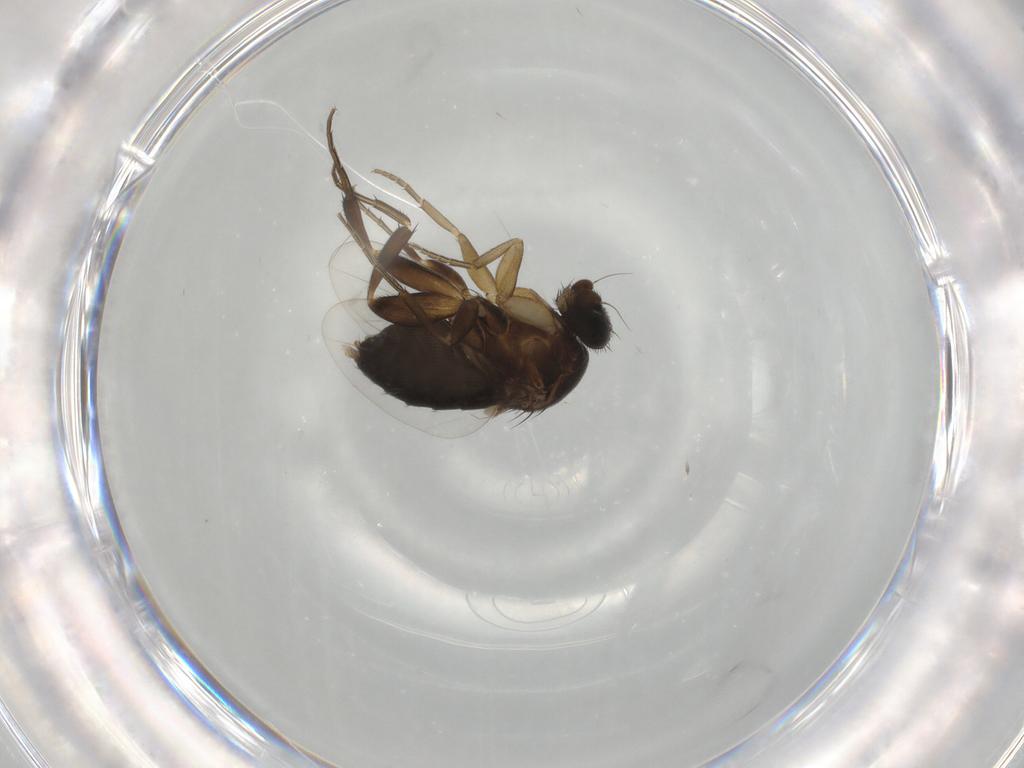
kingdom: Animalia
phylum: Arthropoda
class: Insecta
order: Diptera
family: Phoridae
